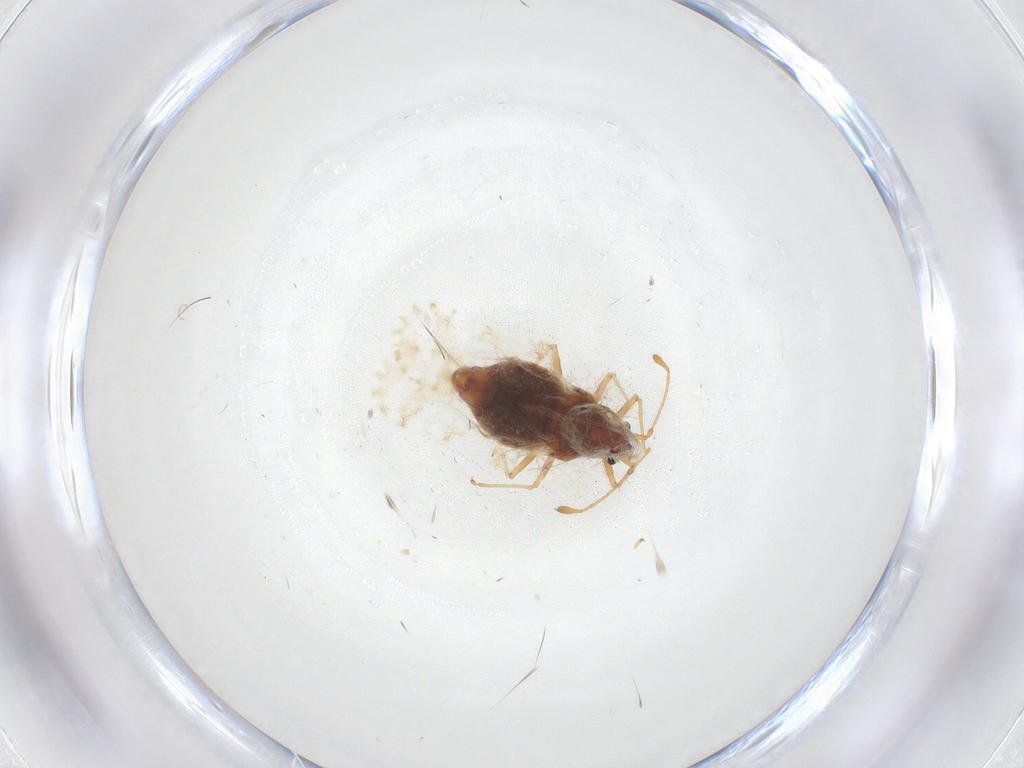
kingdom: Animalia
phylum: Arthropoda
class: Insecta
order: Hemiptera
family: Tingidae
